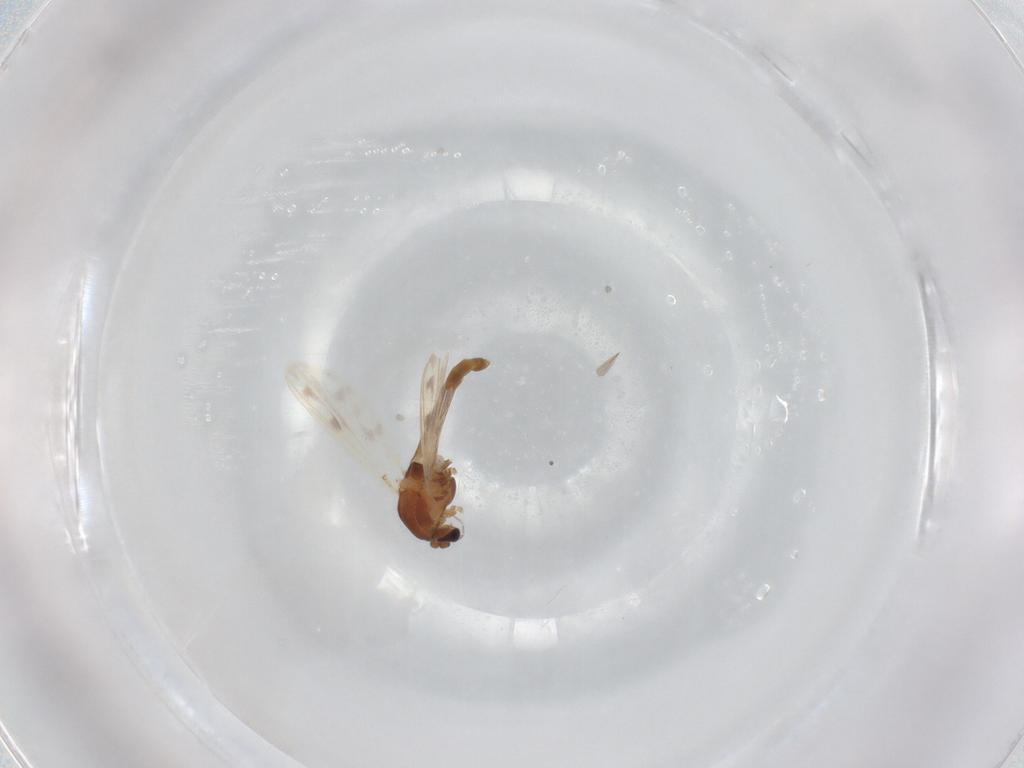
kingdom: Animalia
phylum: Arthropoda
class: Insecta
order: Diptera
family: Chironomidae
